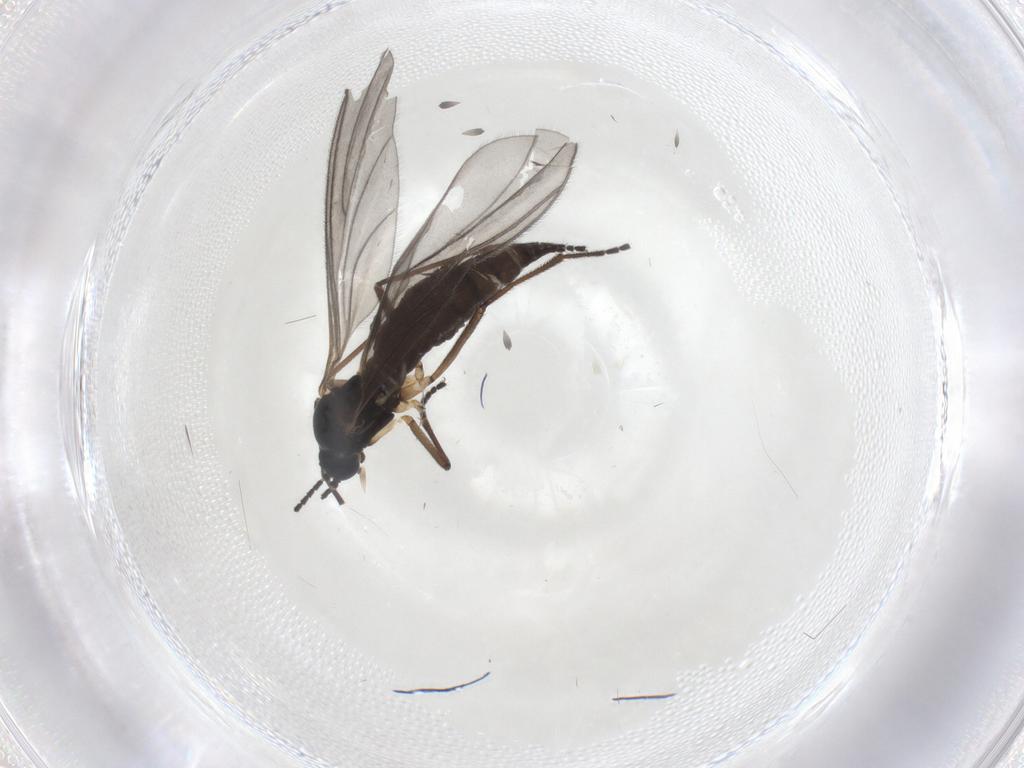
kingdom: Animalia
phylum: Arthropoda
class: Insecta
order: Diptera
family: Sciaridae
